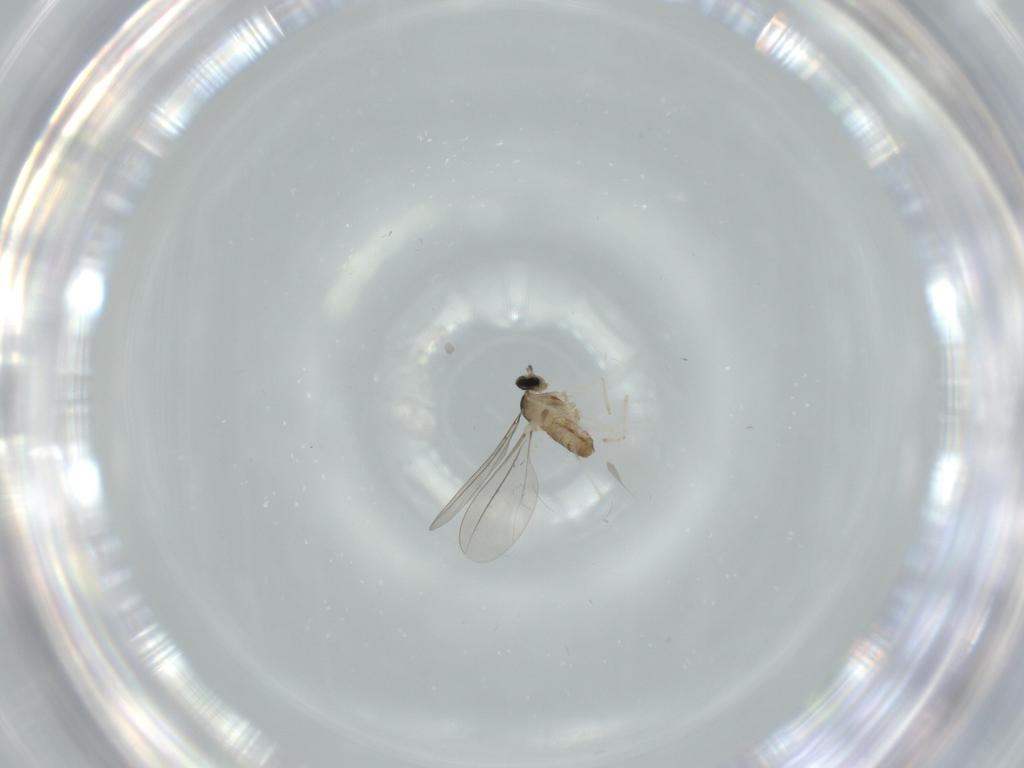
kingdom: Animalia
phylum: Arthropoda
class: Insecta
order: Diptera
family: Cecidomyiidae
